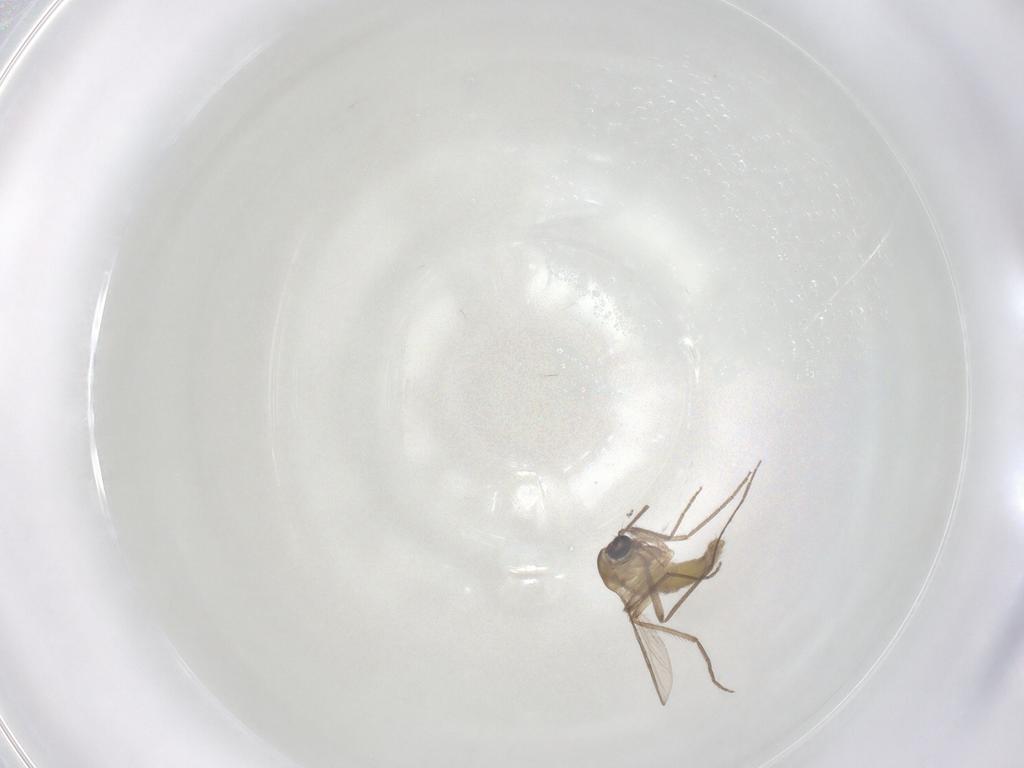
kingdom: Animalia
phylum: Arthropoda
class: Insecta
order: Diptera
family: Chironomidae
